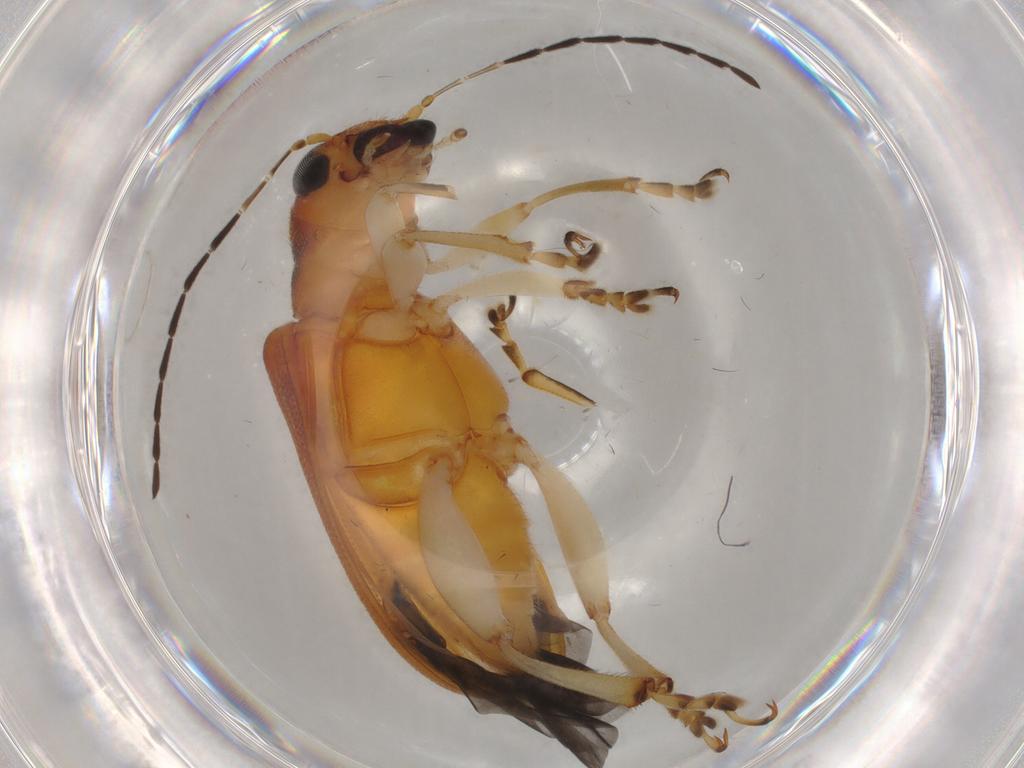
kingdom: Animalia
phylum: Arthropoda
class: Insecta
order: Coleoptera
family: Chrysomelidae
